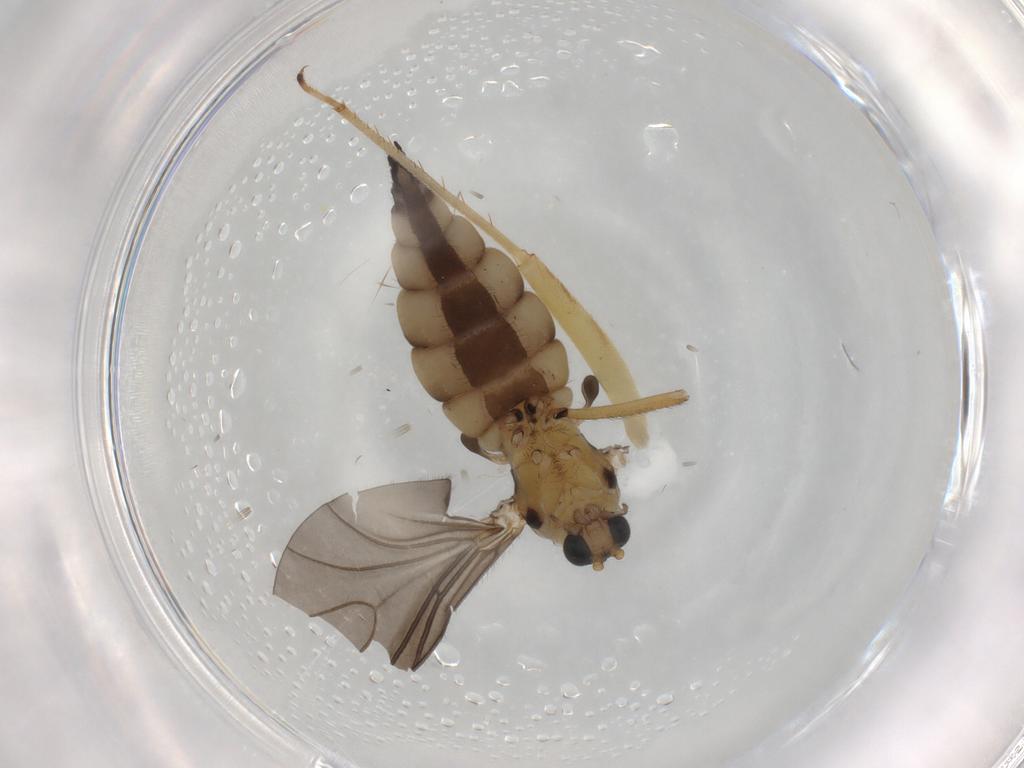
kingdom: Animalia
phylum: Arthropoda
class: Insecta
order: Diptera
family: Sciaridae
